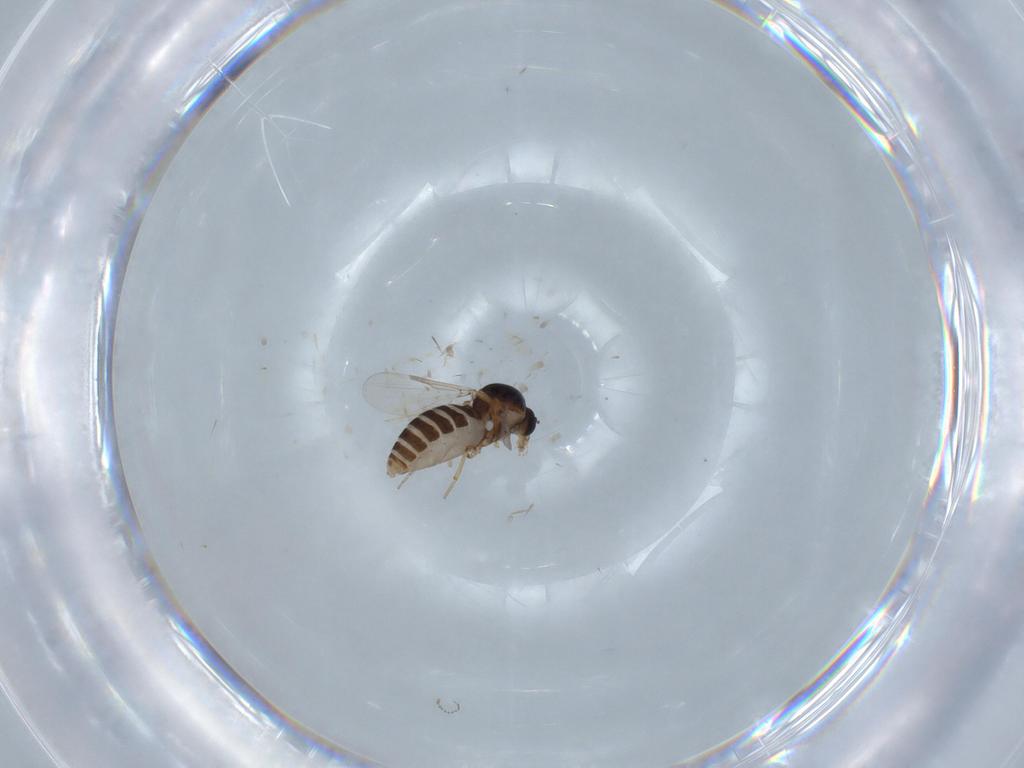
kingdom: Animalia
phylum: Arthropoda
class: Insecta
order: Diptera
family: Ceratopogonidae
